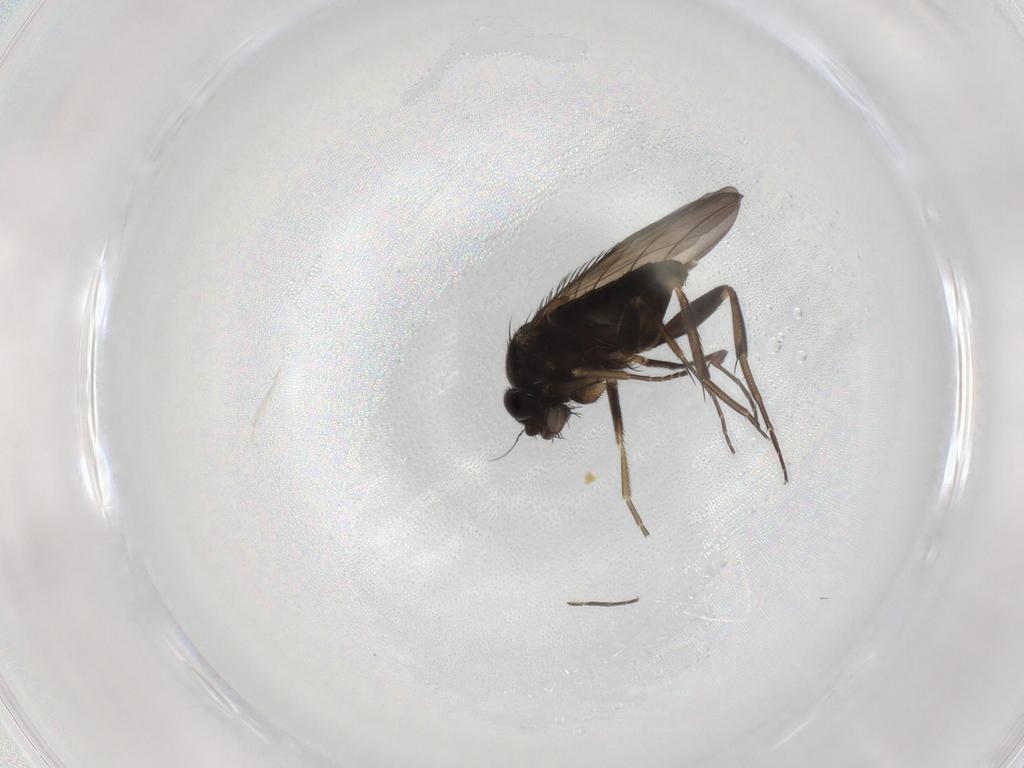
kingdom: Animalia
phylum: Arthropoda
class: Insecta
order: Diptera
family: Phoridae
